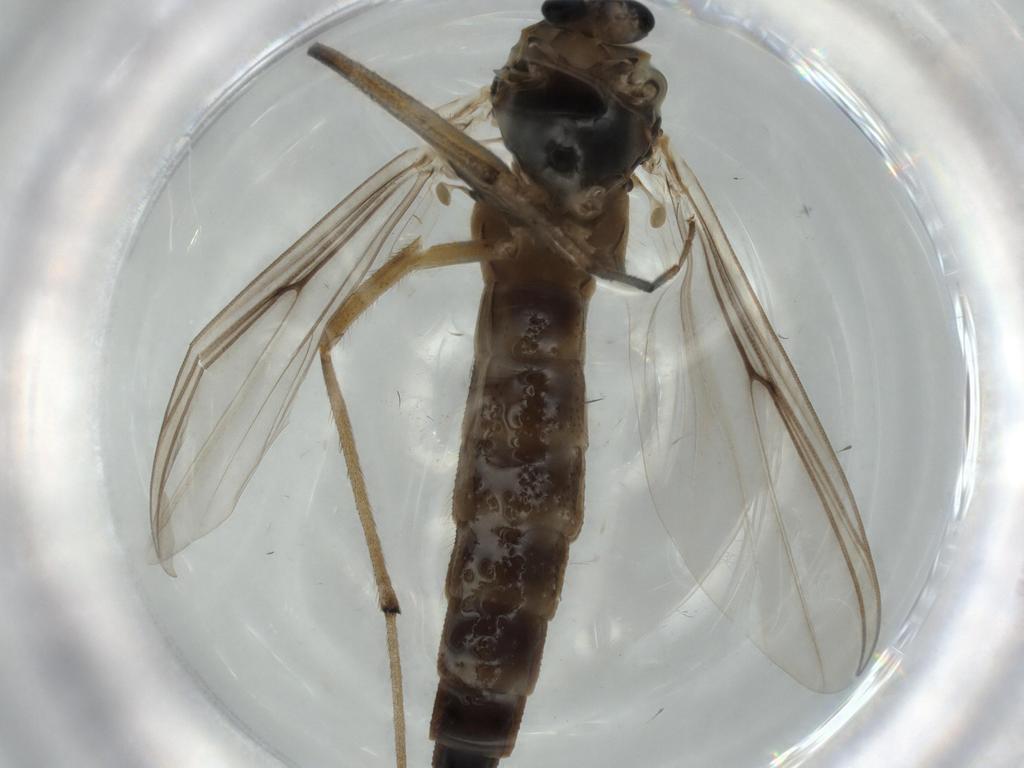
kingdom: Animalia
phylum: Arthropoda
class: Insecta
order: Diptera
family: Chironomidae
